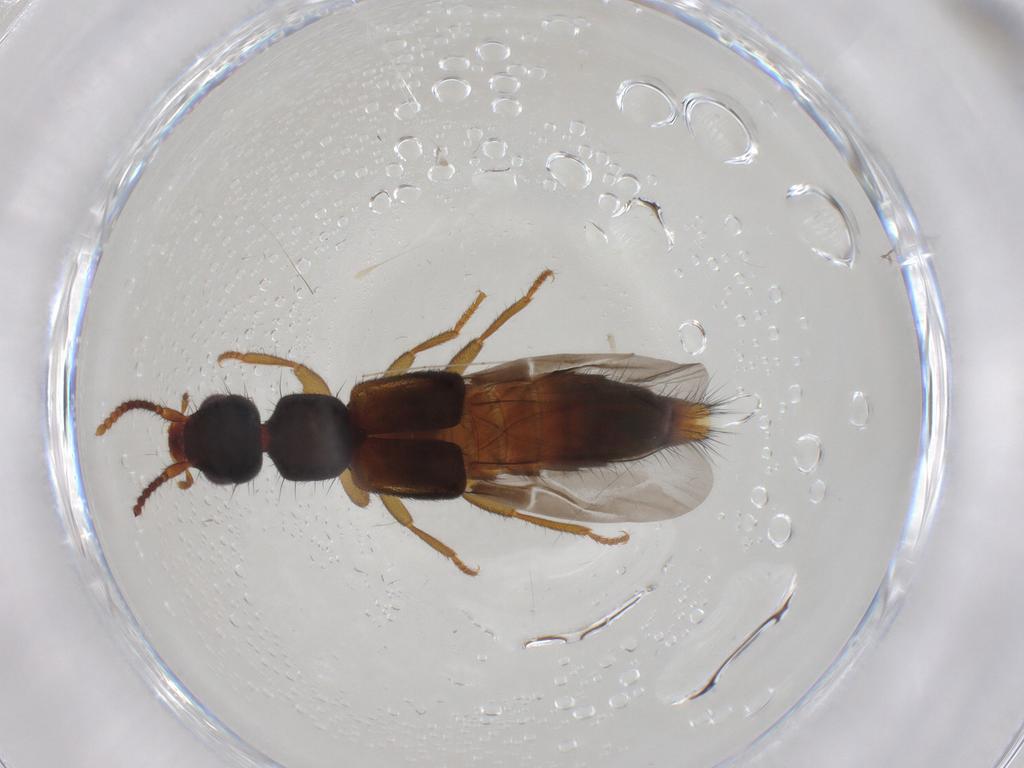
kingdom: Animalia
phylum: Arthropoda
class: Insecta
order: Coleoptera
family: Staphylinidae
